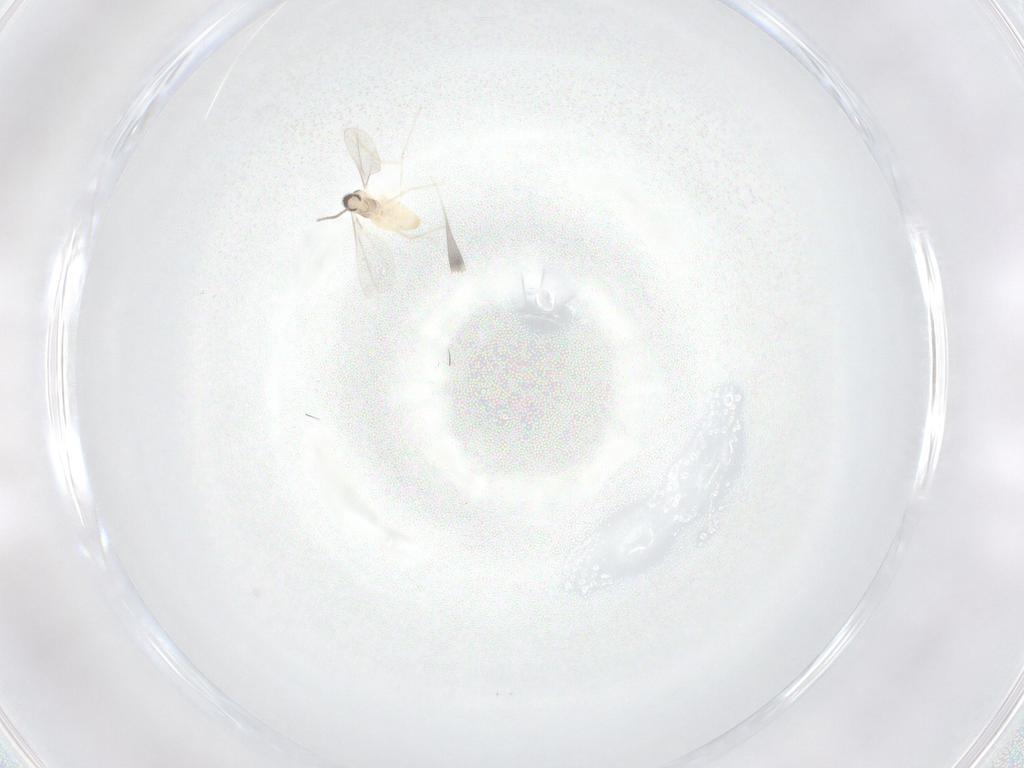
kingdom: Animalia
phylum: Arthropoda
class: Insecta
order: Diptera
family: Cecidomyiidae
